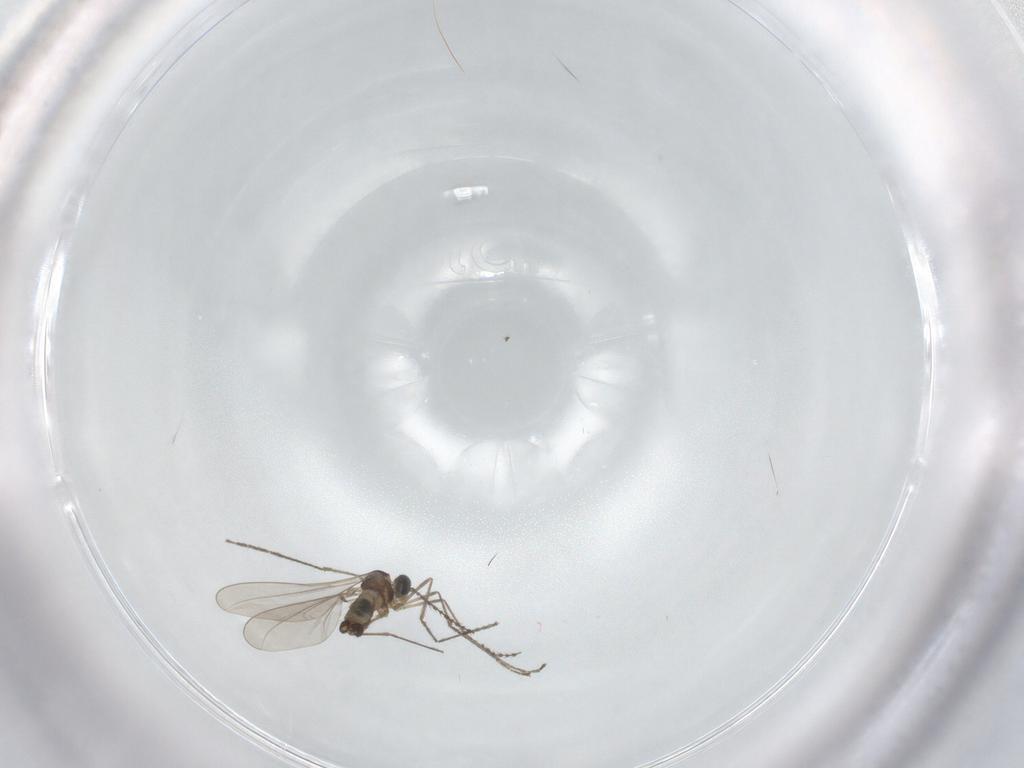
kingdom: Animalia
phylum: Arthropoda
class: Insecta
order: Diptera
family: Cecidomyiidae
